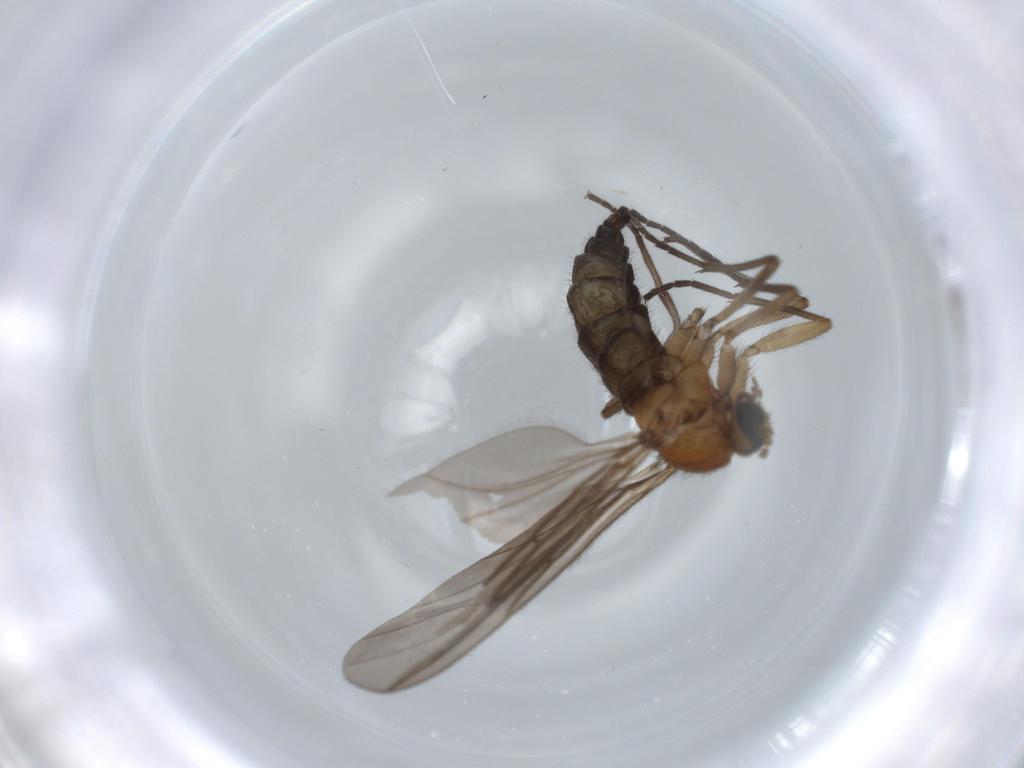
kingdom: Animalia
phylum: Arthropoda
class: Insecta
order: Diptera
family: Sciaridae
